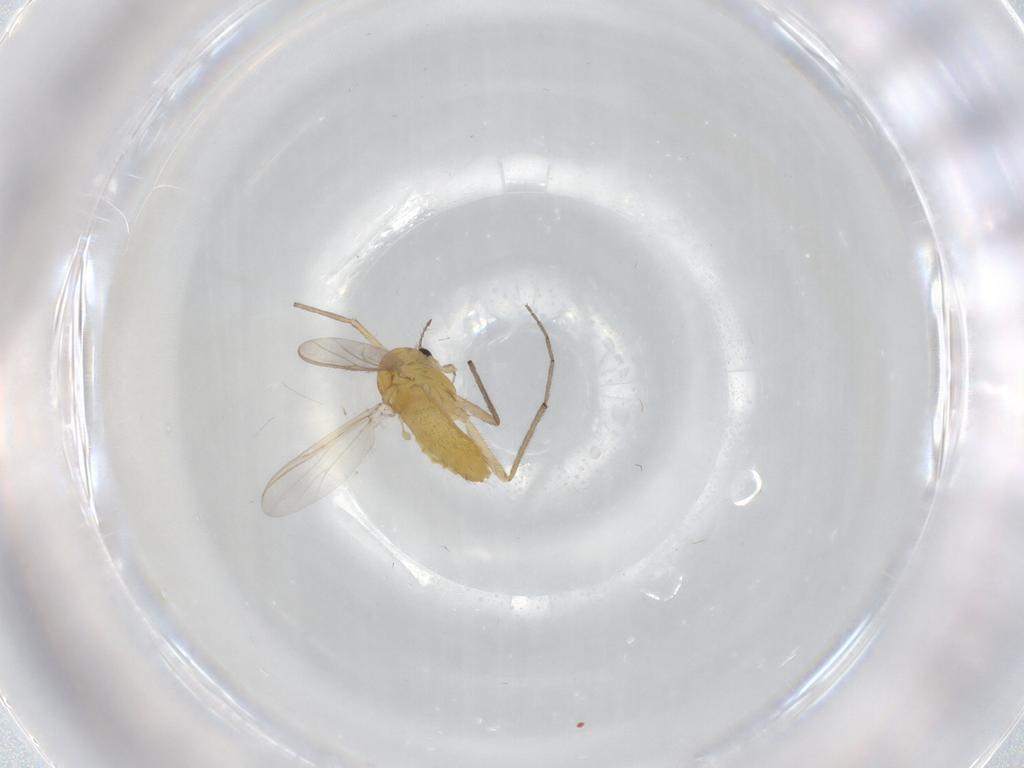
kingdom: Animalia
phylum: Arthropoda
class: Insecta
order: Diptera
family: Chironomidae
